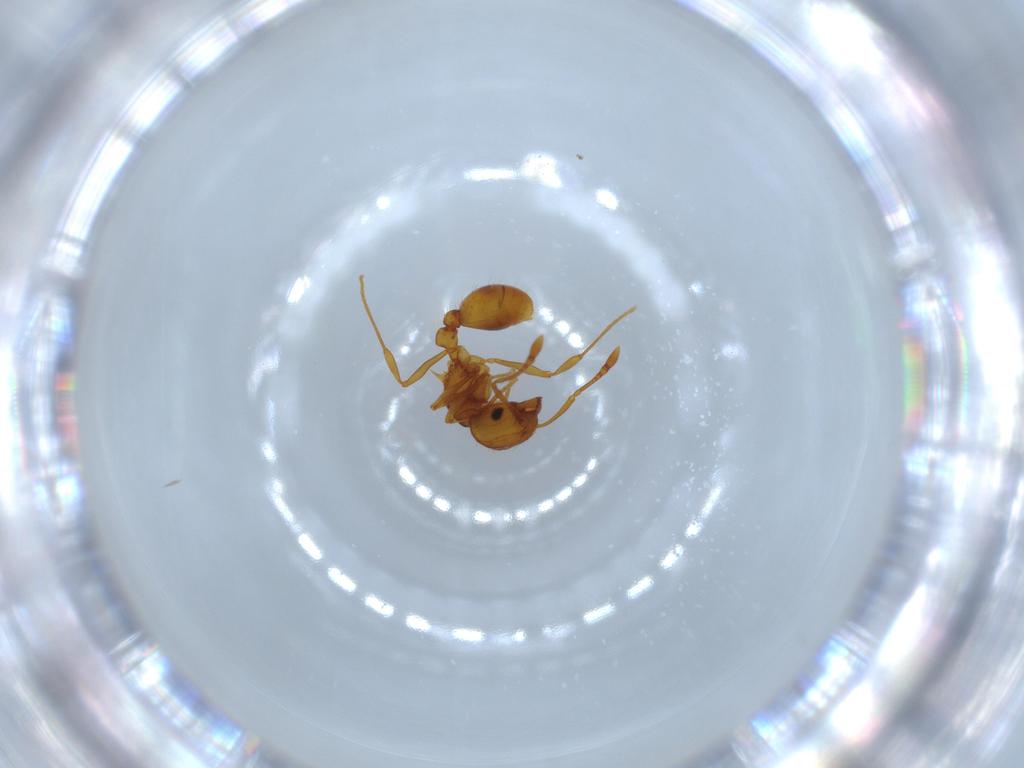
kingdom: Animalia
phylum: Arthropoda
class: Insecta
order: Hymenoptera
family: Formicidae
